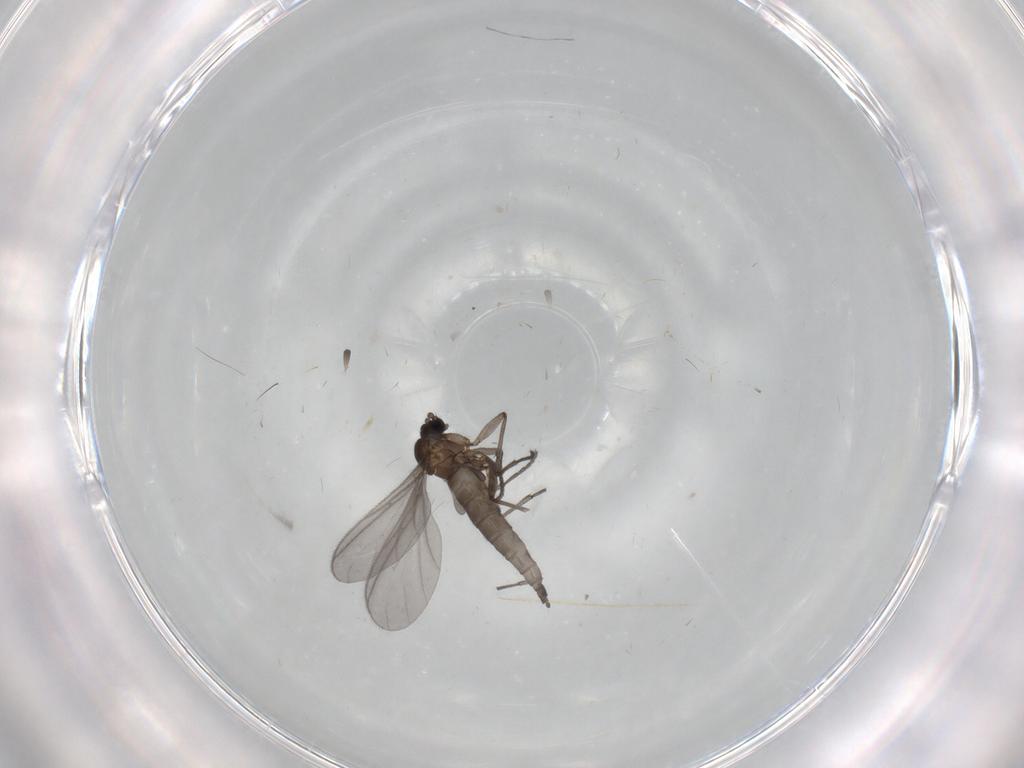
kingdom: Animalia
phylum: Arthropoda
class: Insecta
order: Diptera
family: Sciaridae
